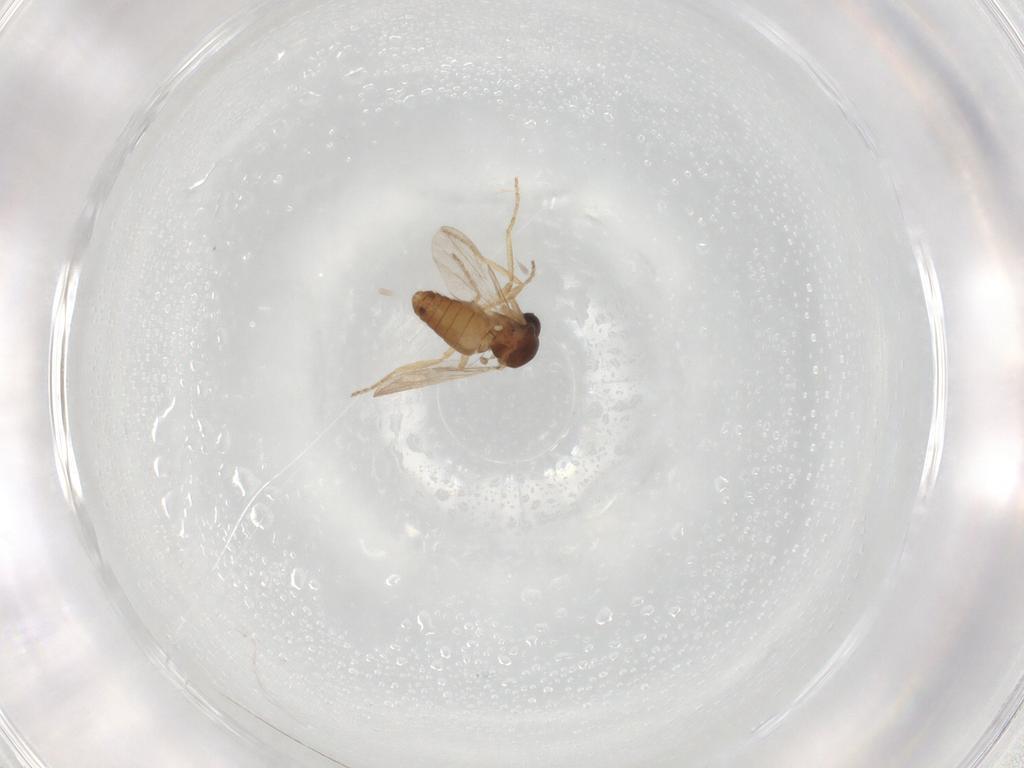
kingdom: Animalia
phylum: Arthropoda
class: Insecta
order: Diptera
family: Ceratopogonidae
